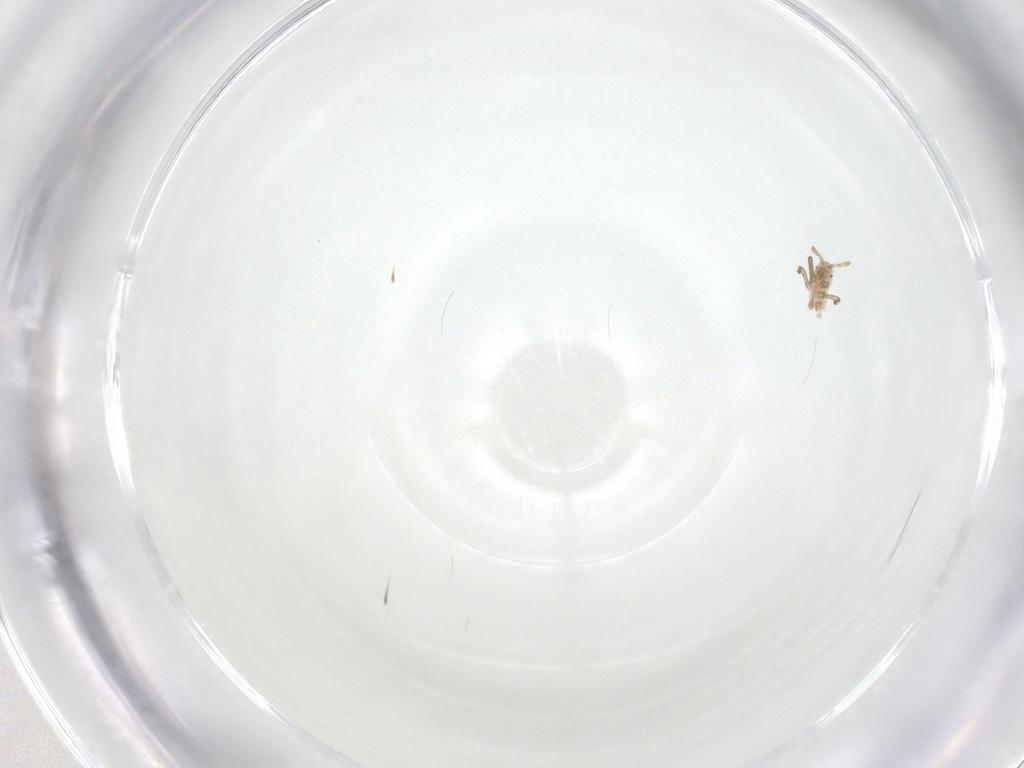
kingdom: Animalia
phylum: Arthropoda
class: Insecta
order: Hemiptera
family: Aphididae
